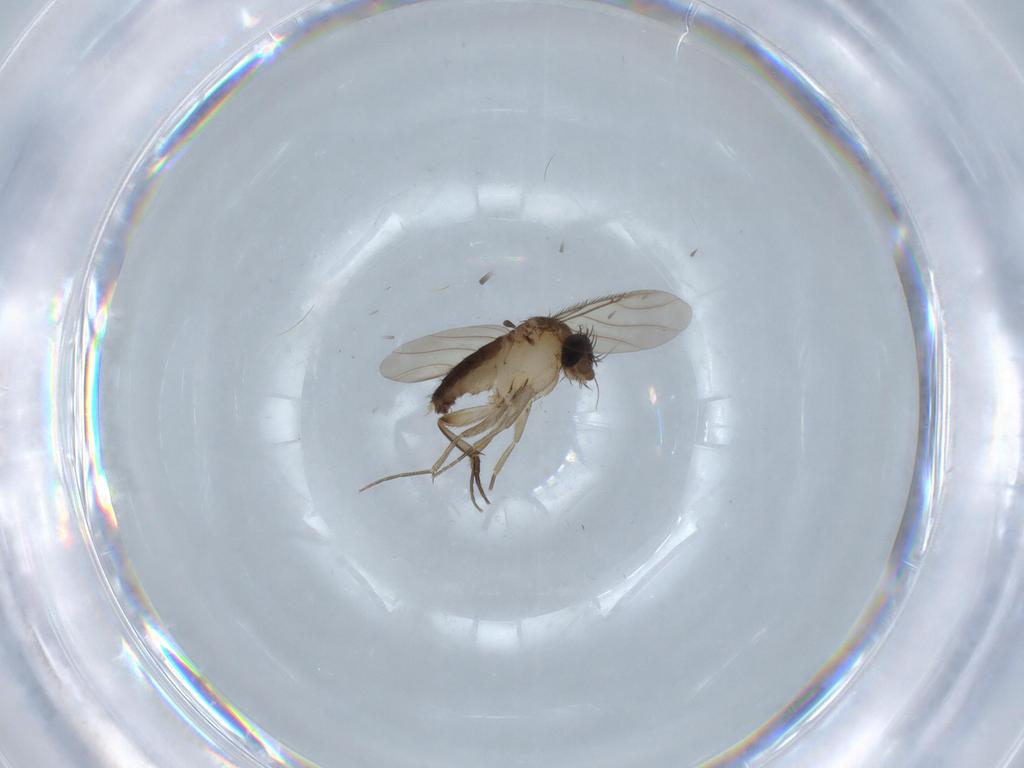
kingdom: Animalia
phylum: Arthropoda
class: Insecta
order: Diptera
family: Phoridae
